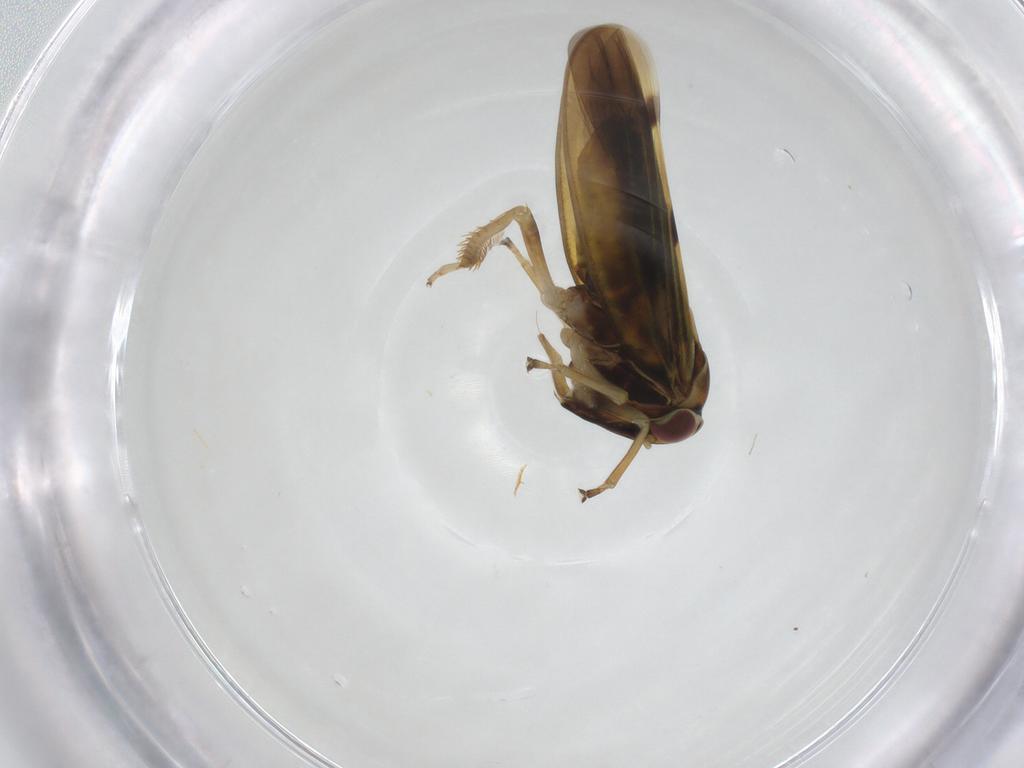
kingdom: Animalia
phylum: Arthropoda
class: Insecta
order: Hemiptera
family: Cicadellidae
